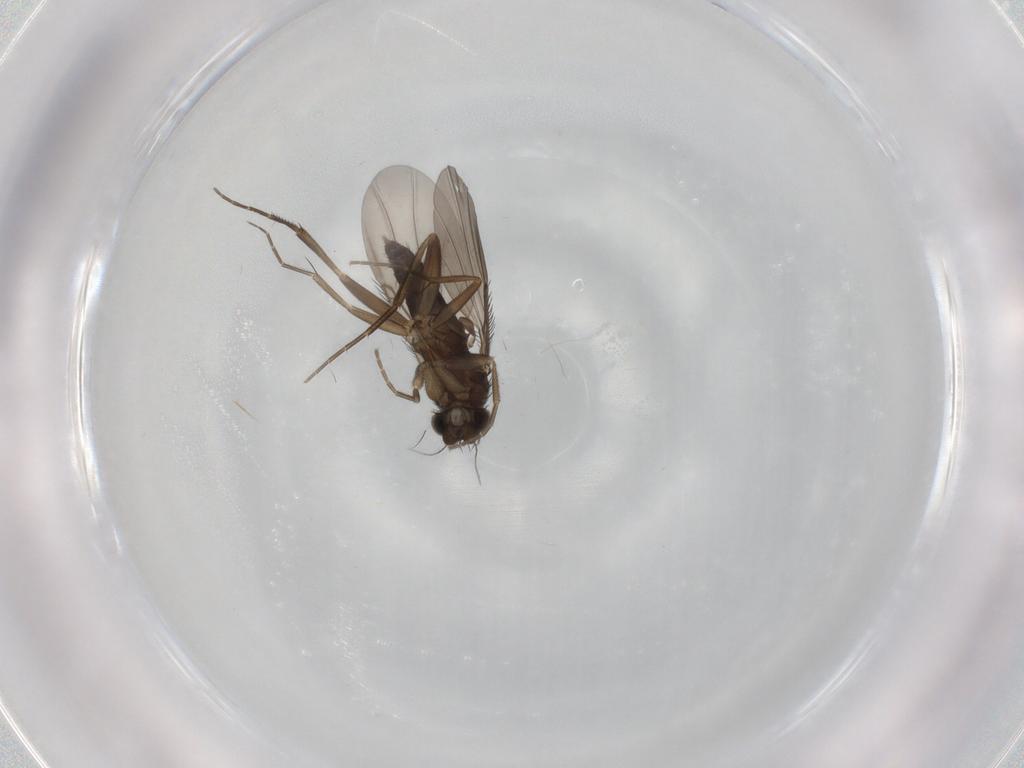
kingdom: Animalia
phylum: Arthropoda
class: Insecta
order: Diptera
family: Phoridae
